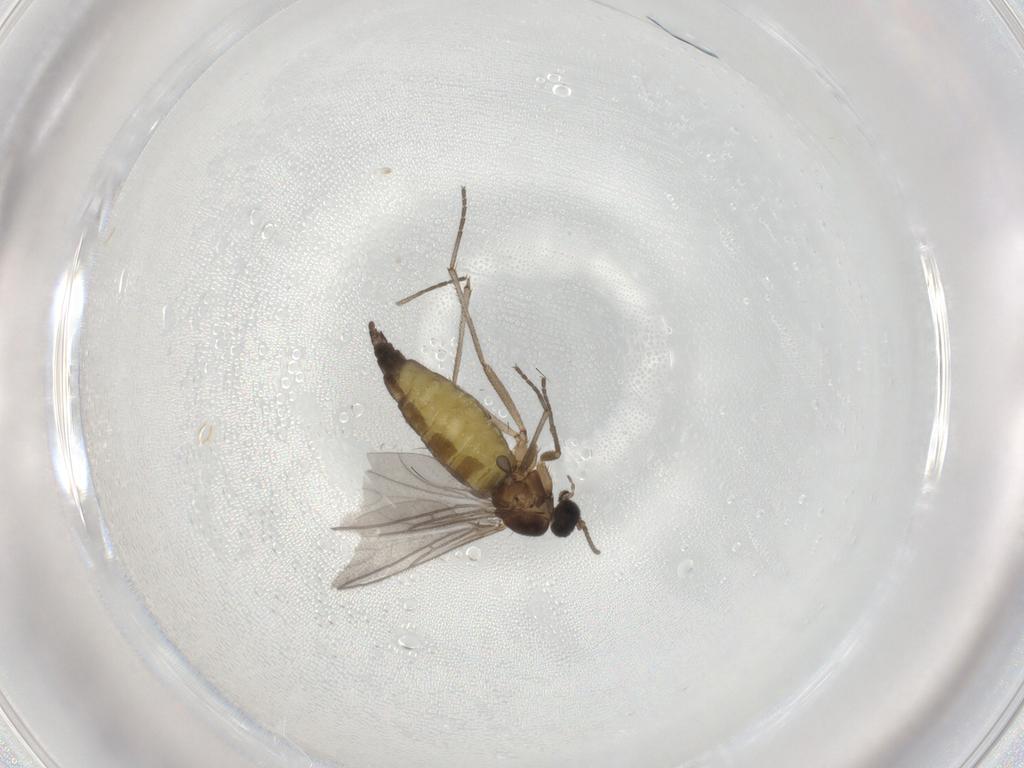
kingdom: Animalia
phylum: Arthropoda
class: Insecta
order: Diptera
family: Sciaridae
